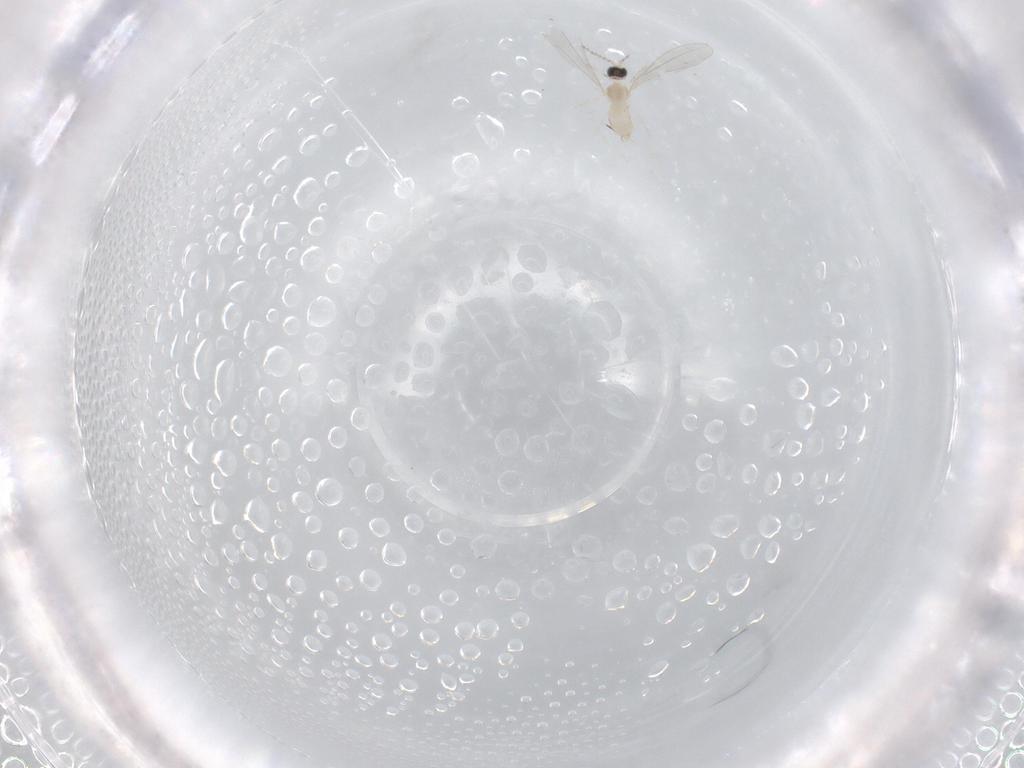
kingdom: Animalia
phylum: Arthropoda
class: Insecta
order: Diptera
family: Cecidomyiidae
